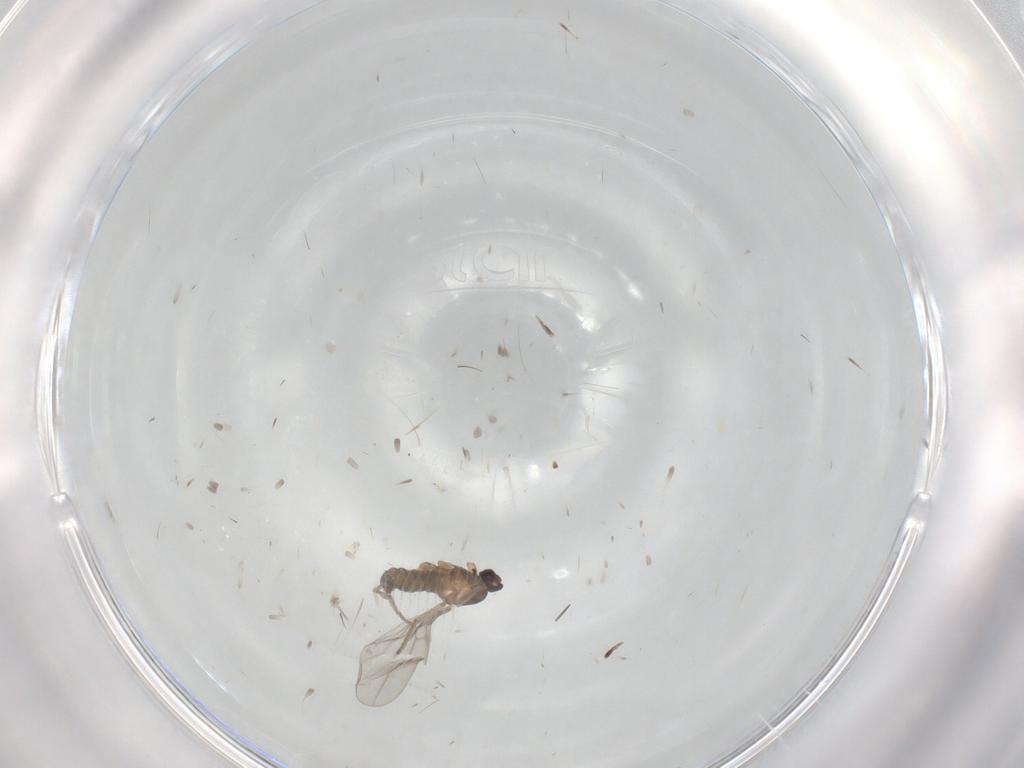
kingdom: Animalia
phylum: Arthropoda
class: Insecta
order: Diptera
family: Cecidomyiidae
